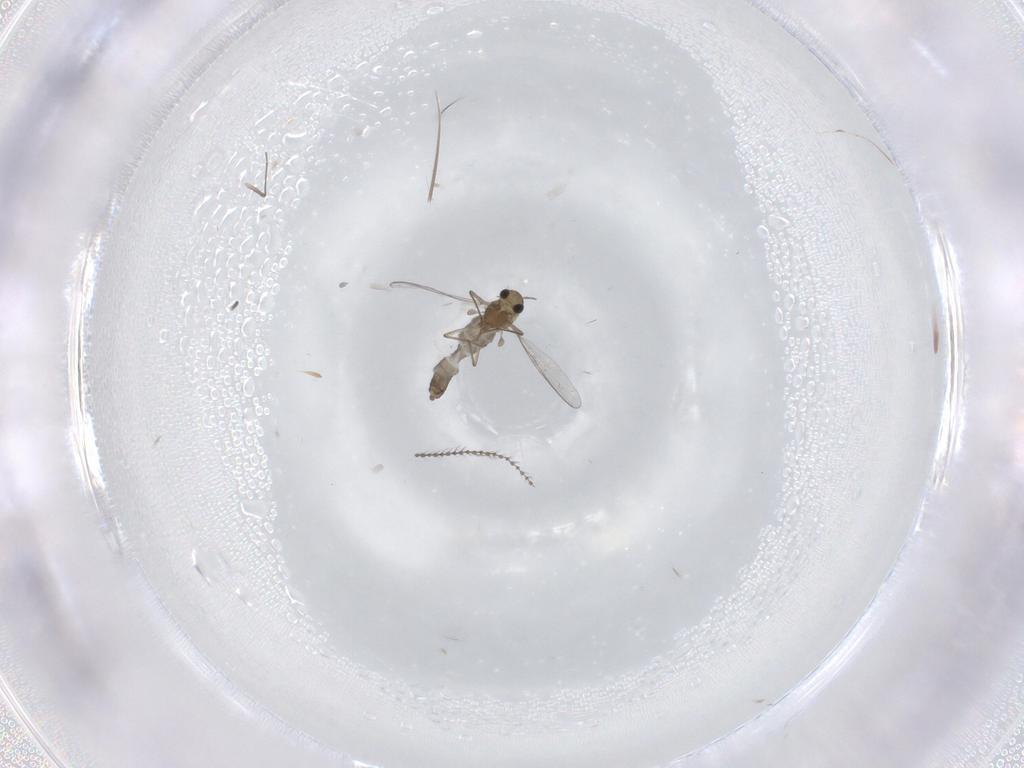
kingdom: Animalia
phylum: Arthropoda
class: Insecta
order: Diptera
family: Chironomidae
